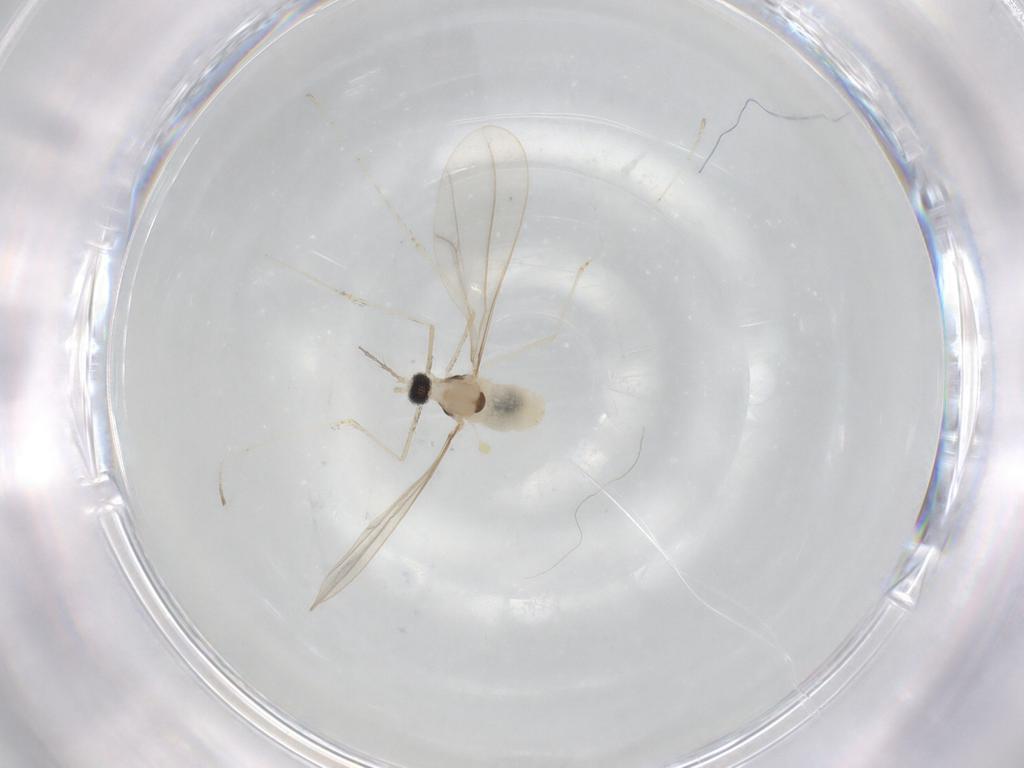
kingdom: Animalia
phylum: Arthropoda
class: Insecta
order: Diptera
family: Cecidomyiidae
